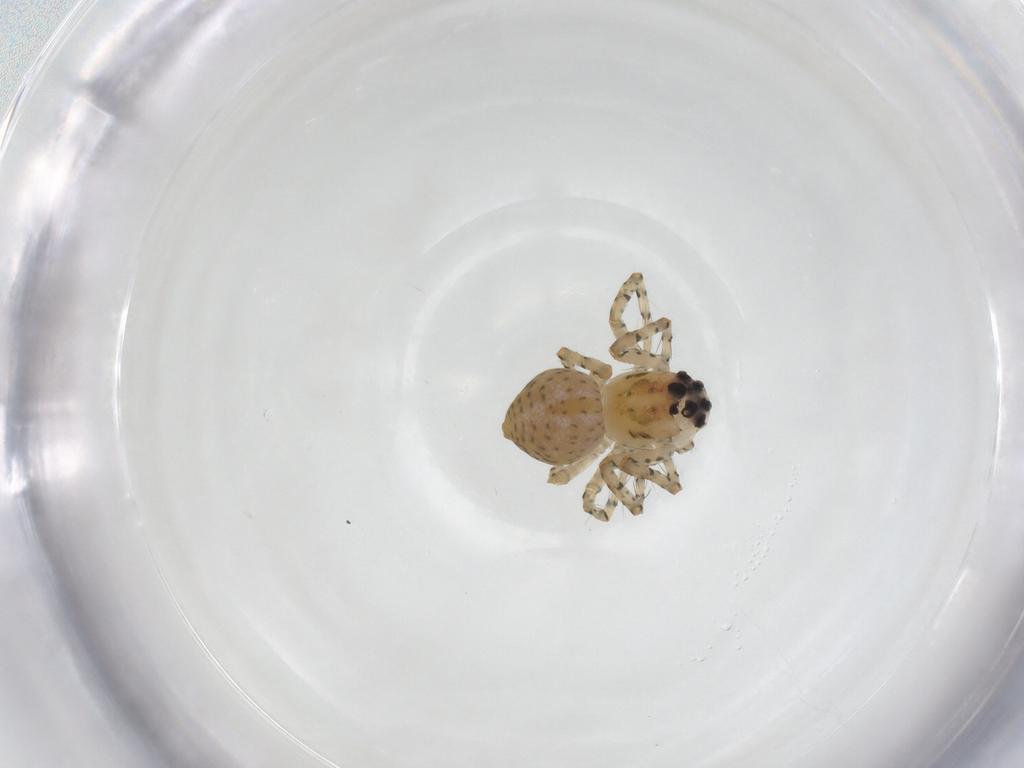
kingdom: Animalia
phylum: Arthropoda
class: Arachnida
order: Araneae
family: Oxyopidae
